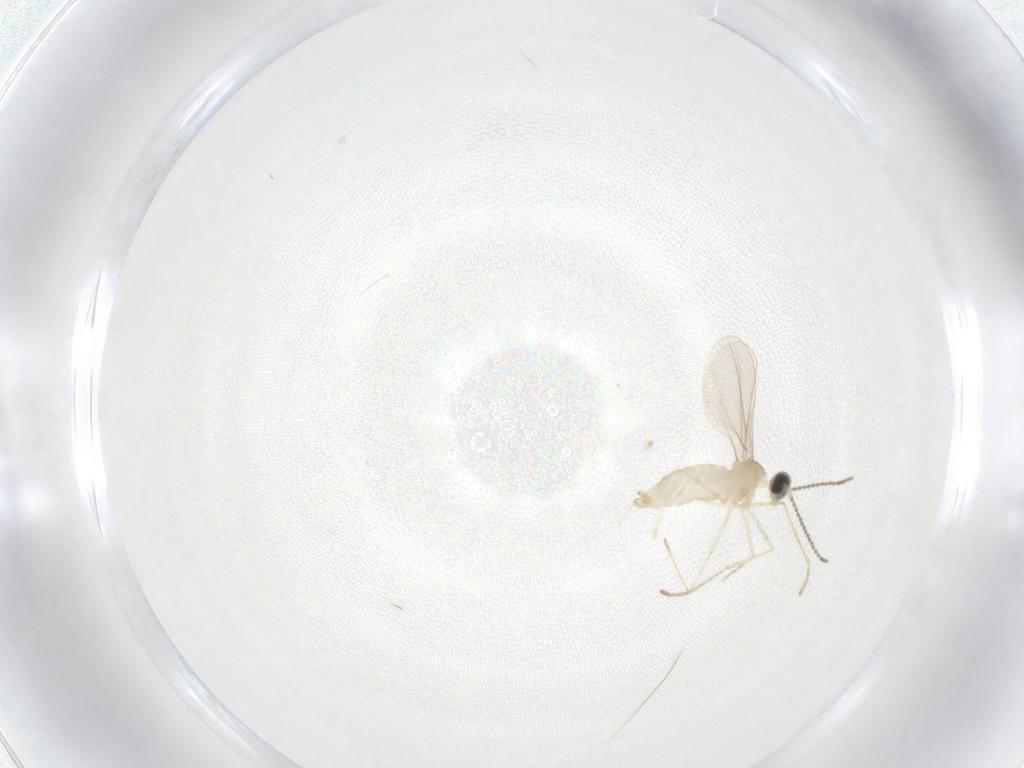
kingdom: Animalia
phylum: Arthropoda
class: Insecta
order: Diptera
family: Cecidomyiidae
